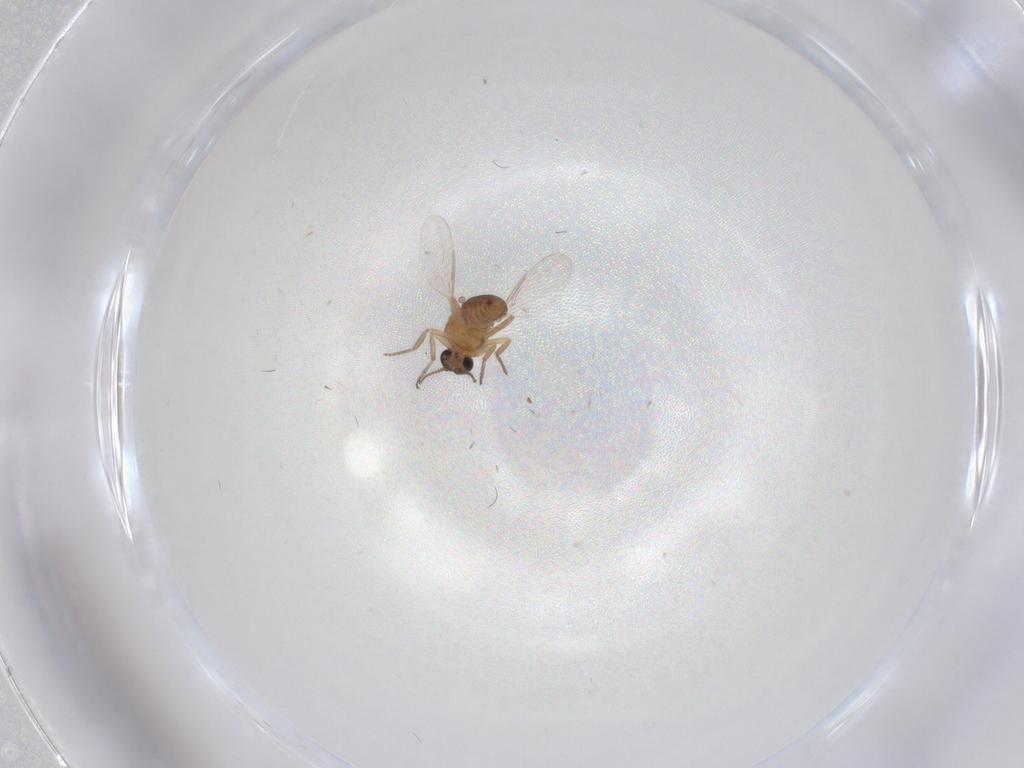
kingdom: Animalia
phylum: Arthropoda
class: Insecta
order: Diptera
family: Ceratopogonidae
